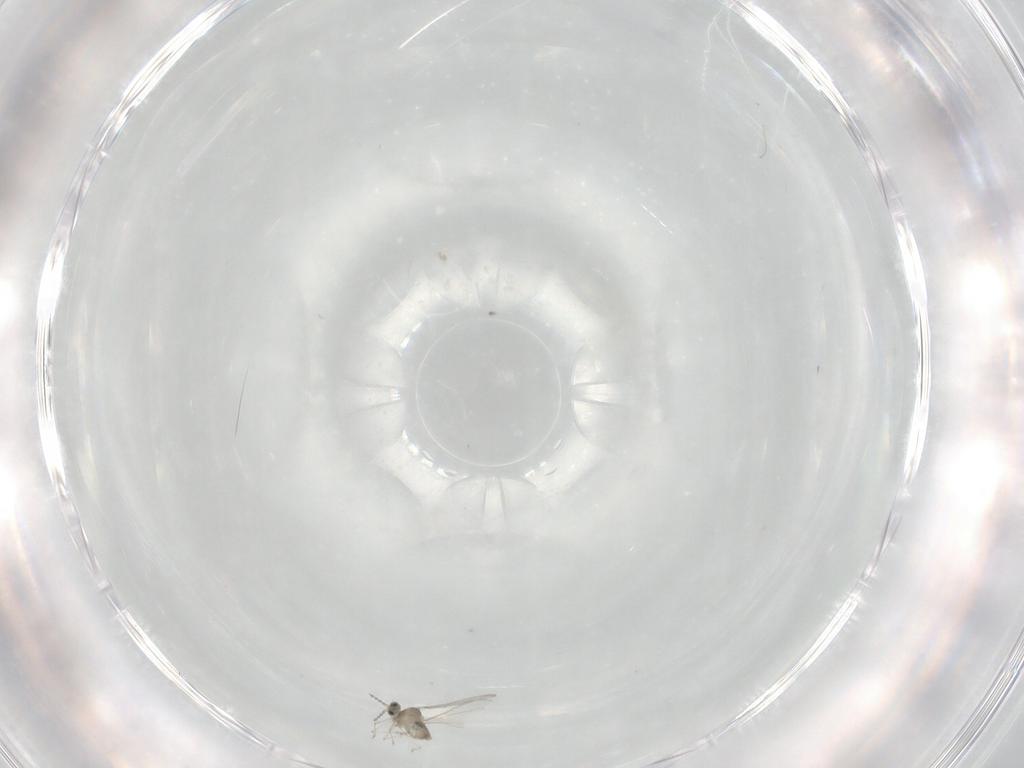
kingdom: Animalia
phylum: Arthropoda
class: Insecta
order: Diptera
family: Cecidomyiidae
